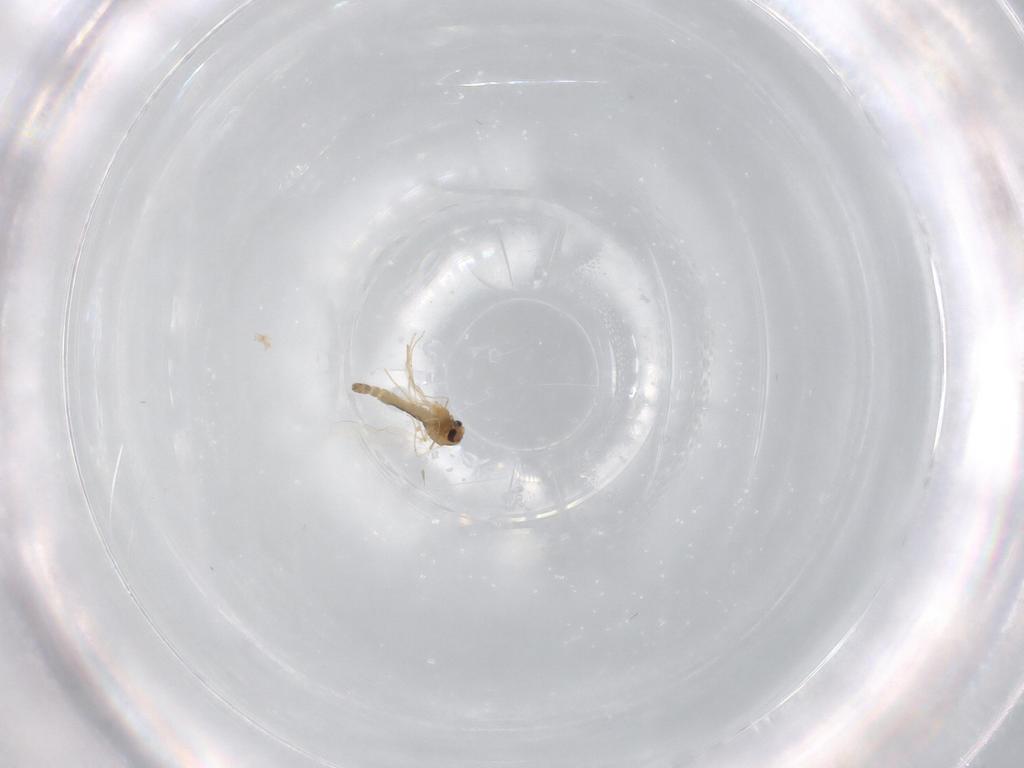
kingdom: Animalia
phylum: Arthropoda
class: Insecta
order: Diptera
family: Chironomidae
